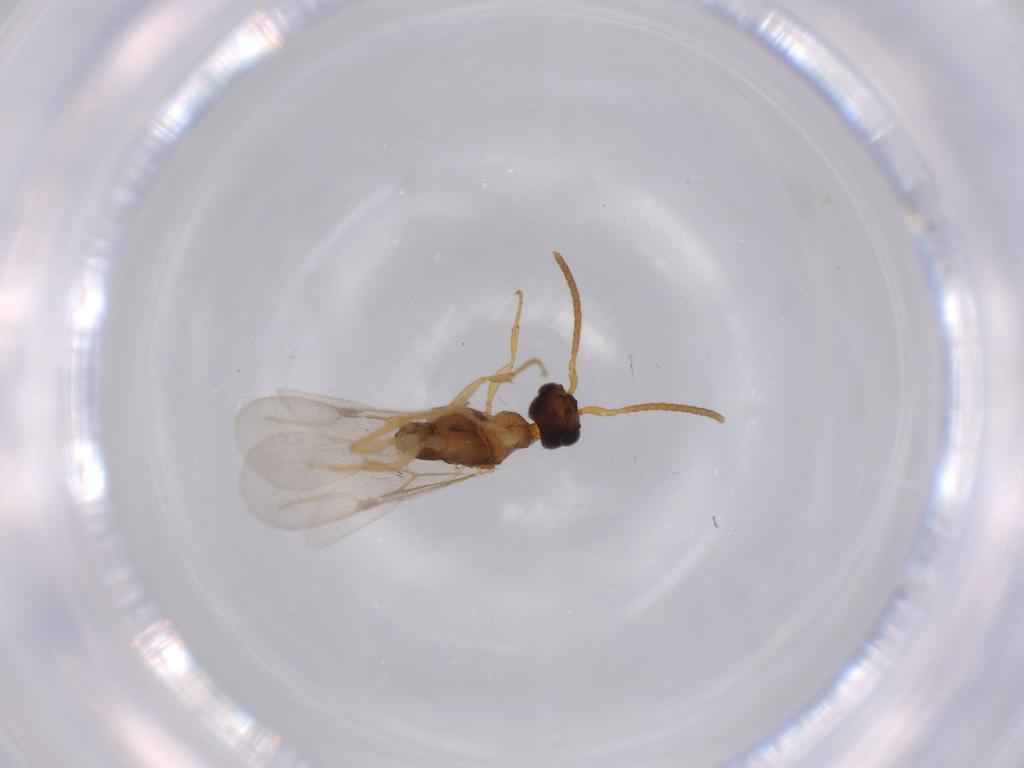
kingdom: Animalia
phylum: Arthropoda
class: Insecta
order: Hymenoptera
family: Bethylidae
